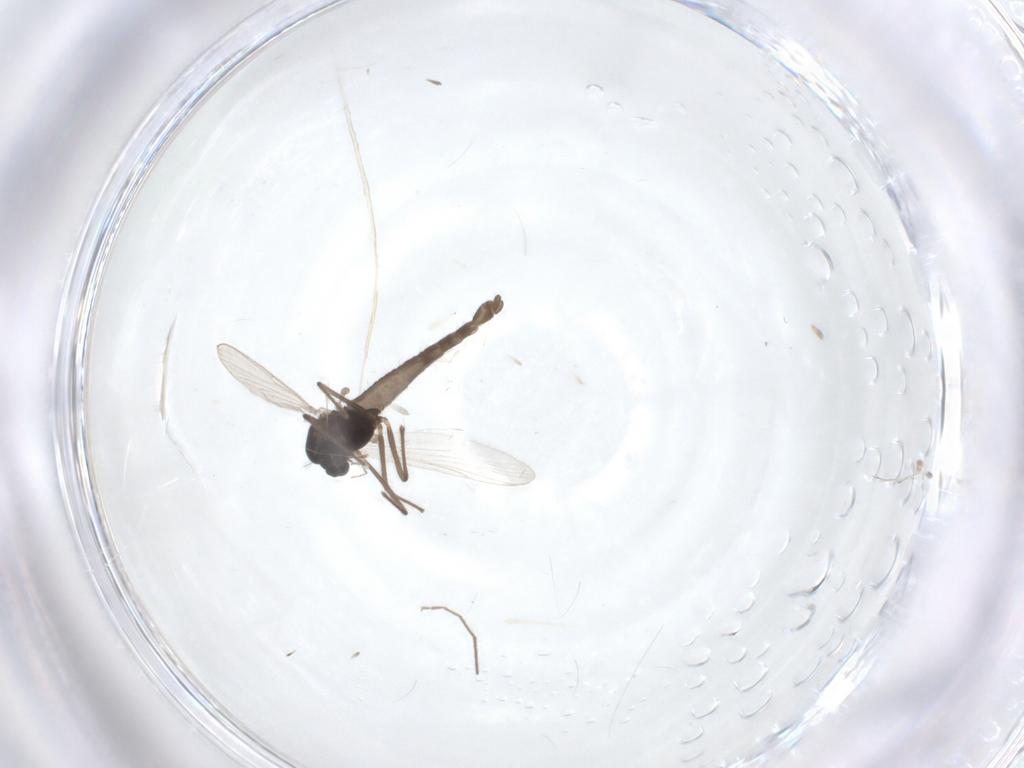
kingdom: Animalia
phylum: Arthropoda
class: Insecta
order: Diptera
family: Chironomidae
